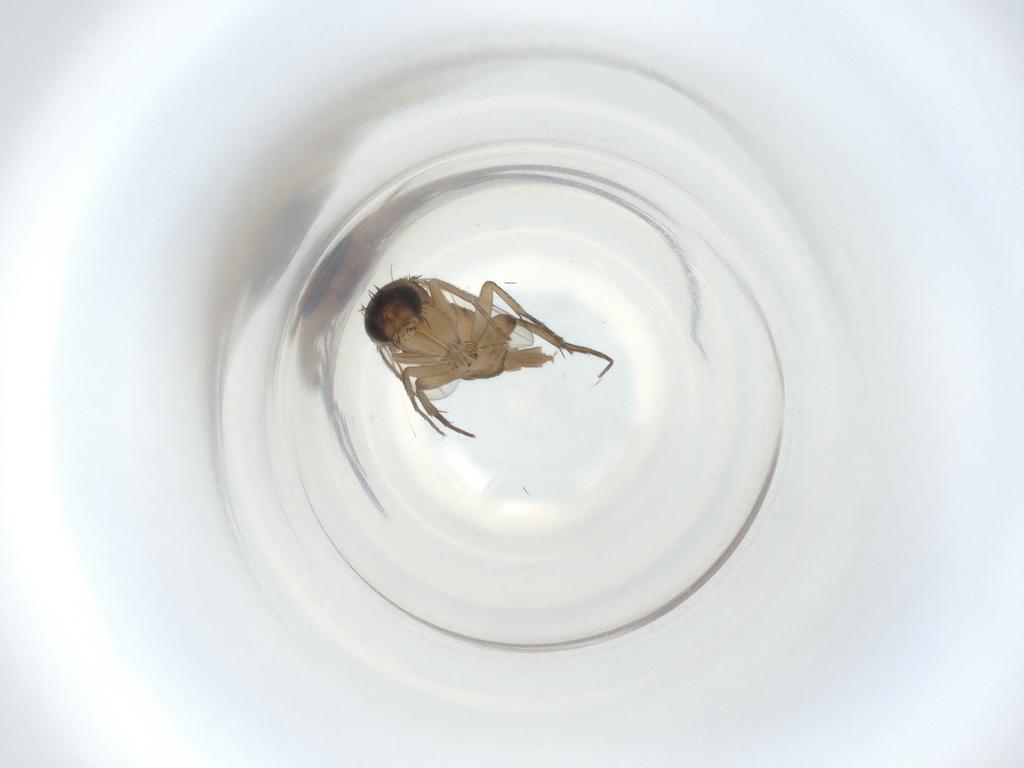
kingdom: Animalia
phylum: Arthropoda
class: Insecta
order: Diptera
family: Phoridae
